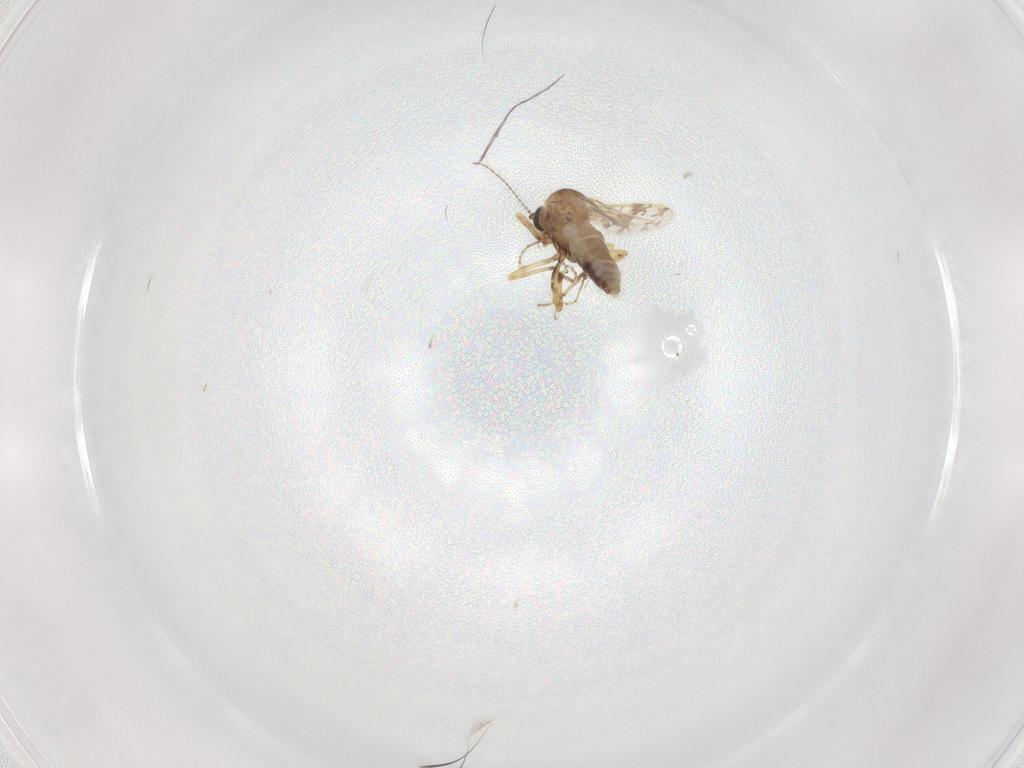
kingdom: Animalia
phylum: Arthropoda
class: Insecta
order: Diptera
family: Ceratopogonidae
